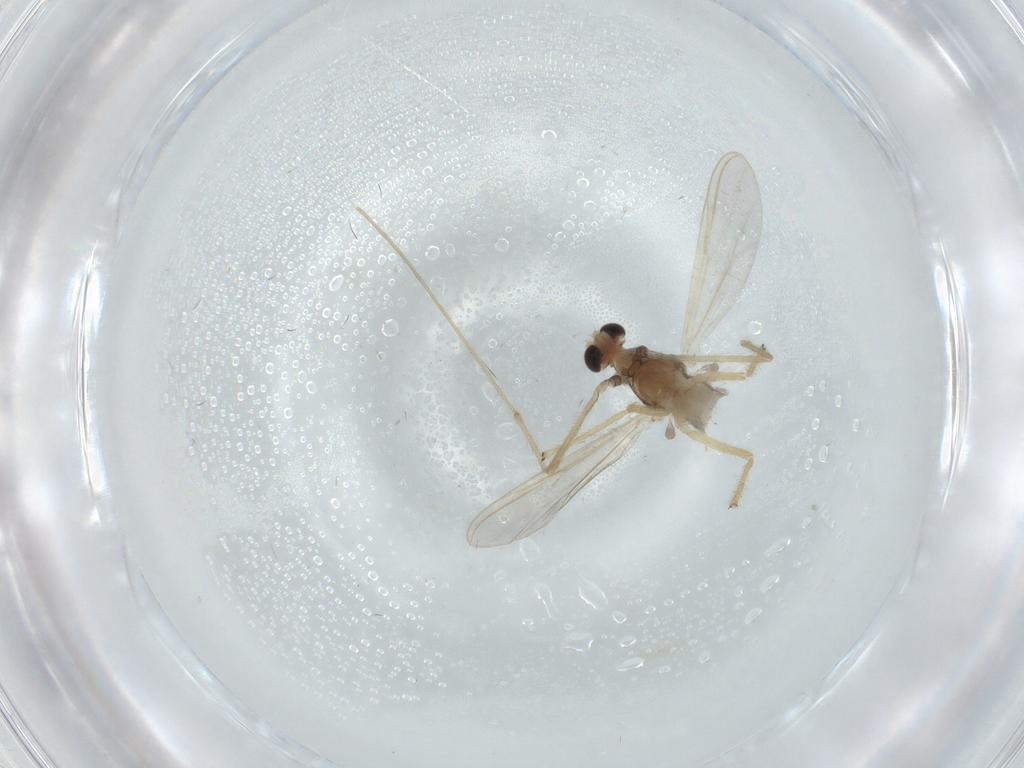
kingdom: Animalia
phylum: Arthropoda
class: Insecta
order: Diptera
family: Chironomidae
